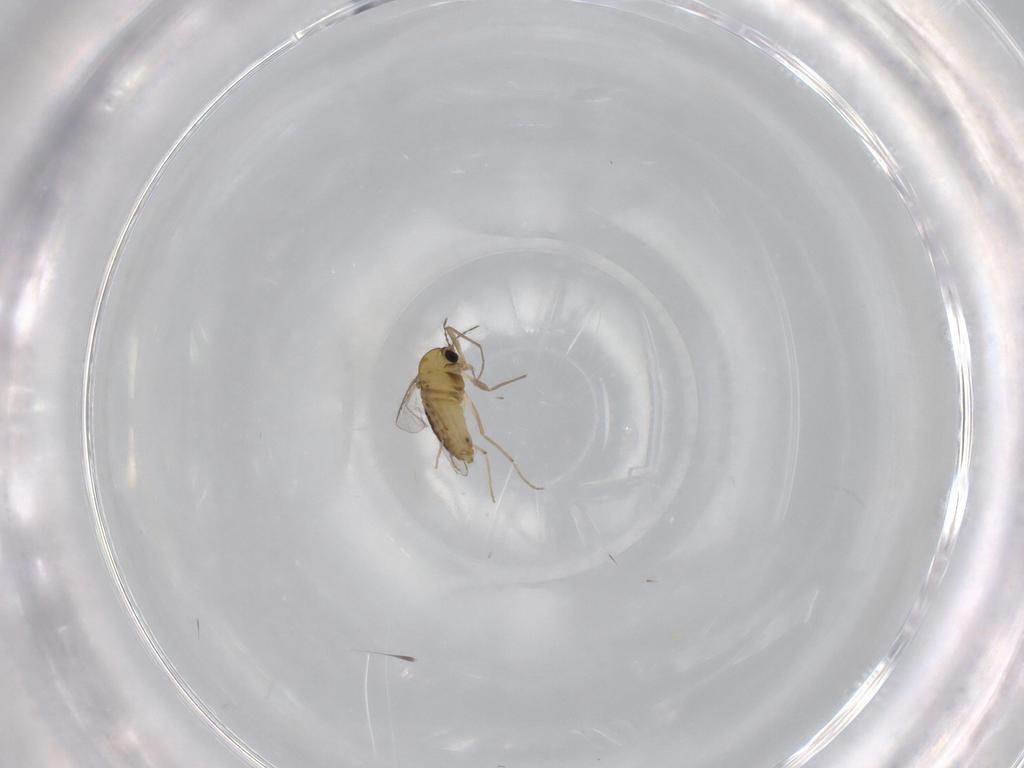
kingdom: Animalia
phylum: Arthropoda
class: Insecta
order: Diptera
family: Chironomidae
